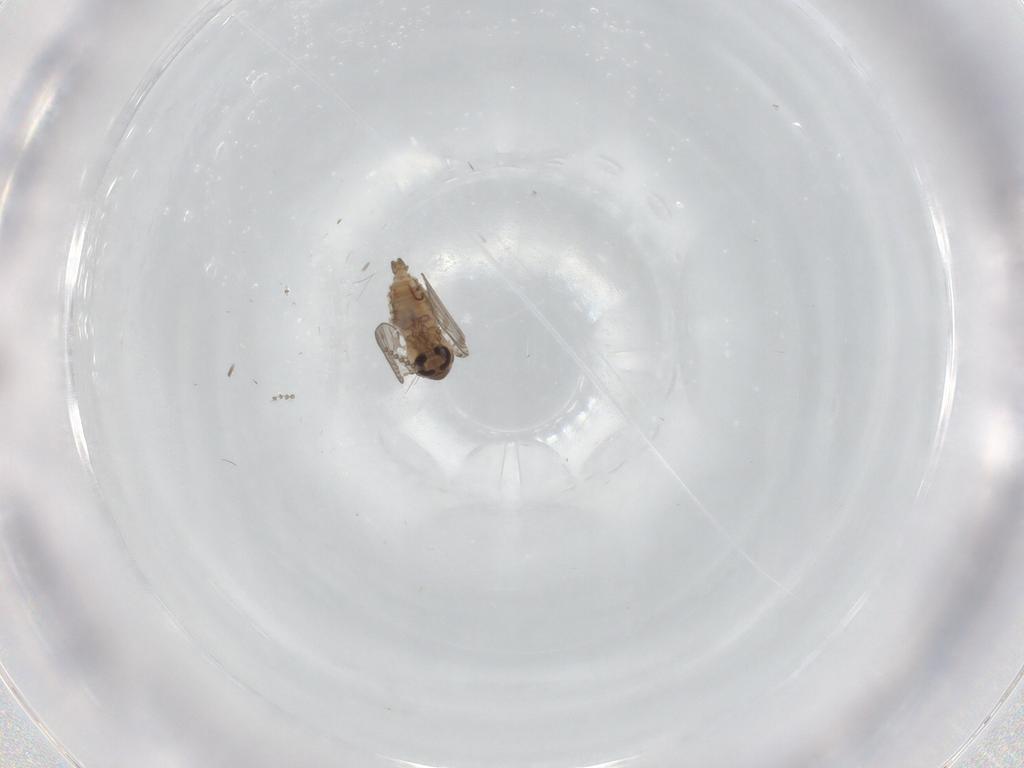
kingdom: Animalia
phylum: Arthropoda
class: Insecta
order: Diptera
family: Psychodidae
